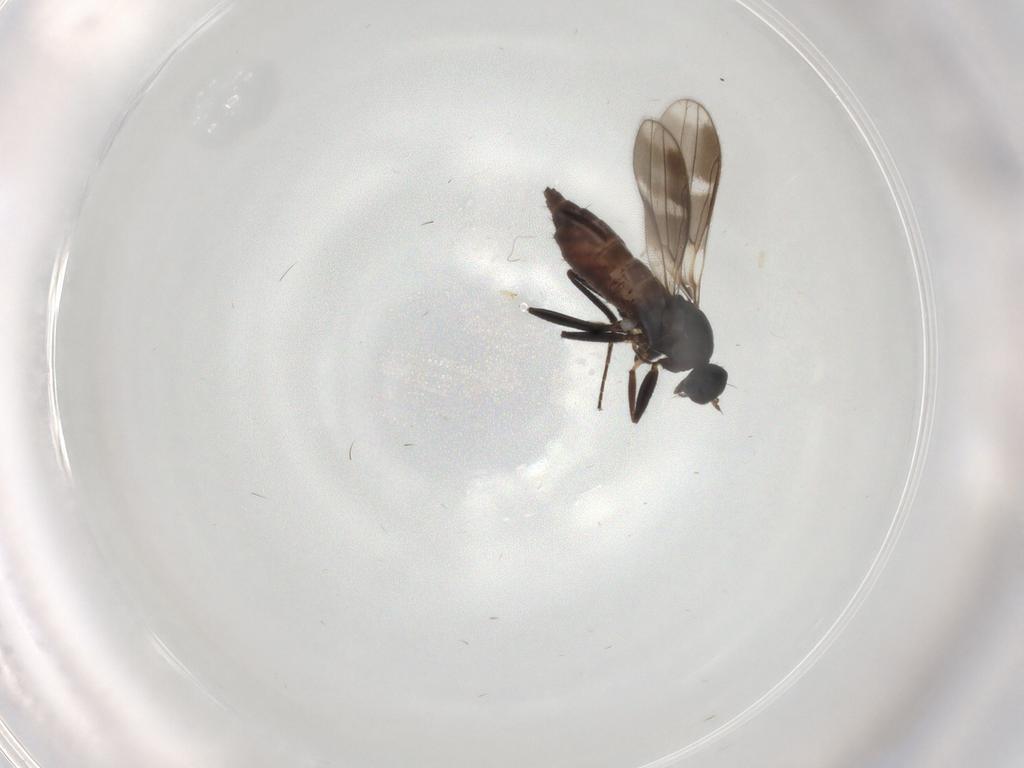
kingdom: Animalia
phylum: Arthropoda
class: Insecta
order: Diptera
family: Sciaridae
